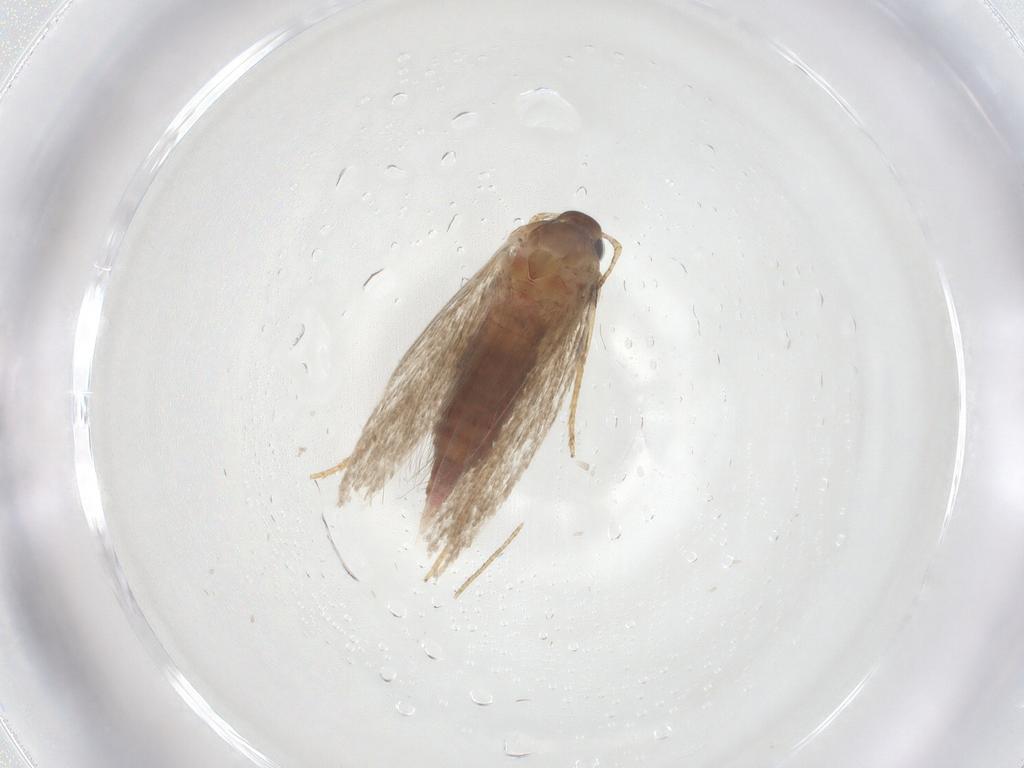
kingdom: Animalia
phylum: Arthropoda
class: Insecta
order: Lepidoptera
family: Gelechiidae
